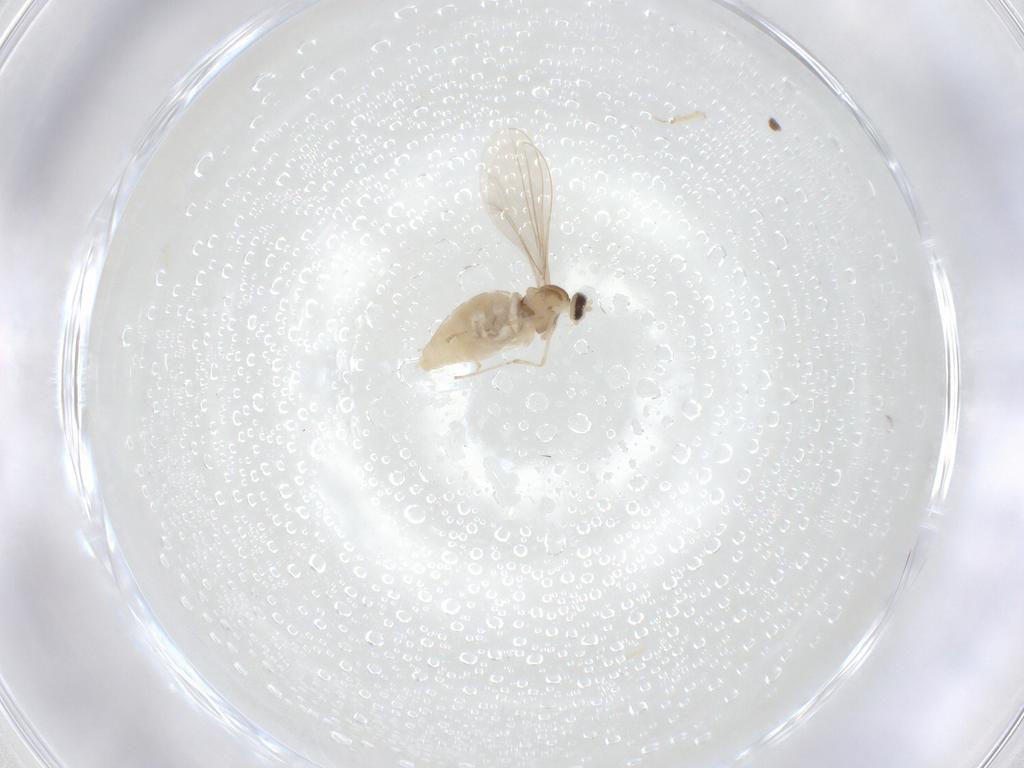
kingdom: Animalia
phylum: Arthropoda
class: Insecta
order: Diptera
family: Cecidomyiidae
